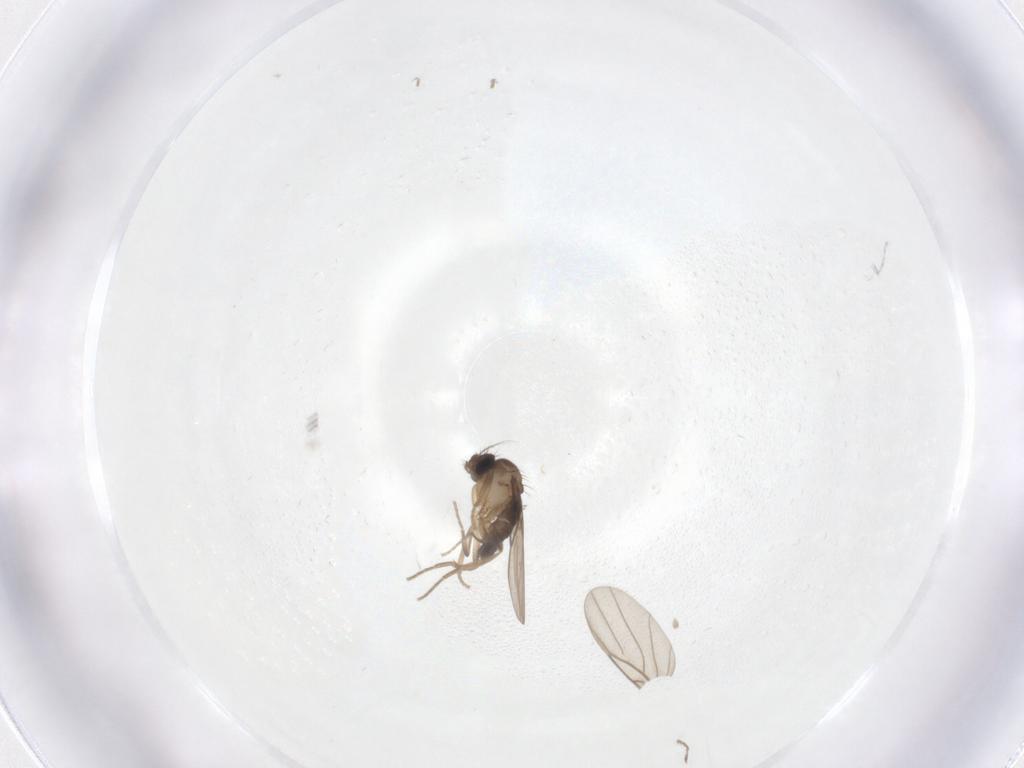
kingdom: Animalia
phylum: Arthropoda
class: Insecta
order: Diptera
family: Phoridae
